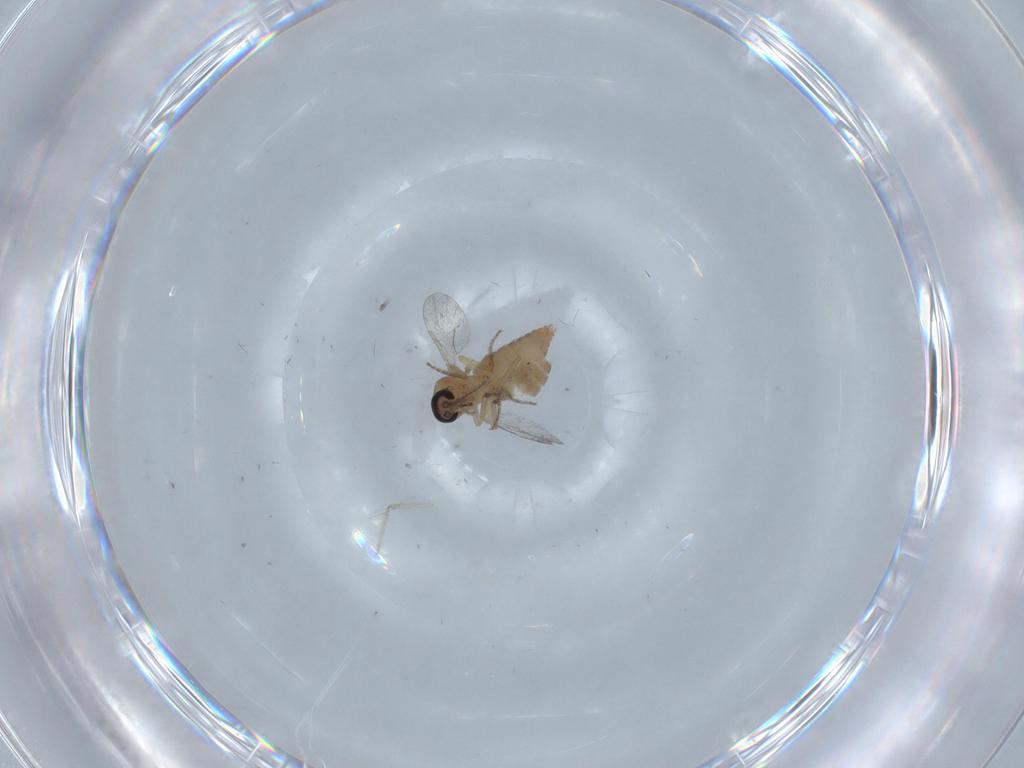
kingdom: Animalia
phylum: Arthropoda
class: Insecta
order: Diptera
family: Ceratopogonidae
